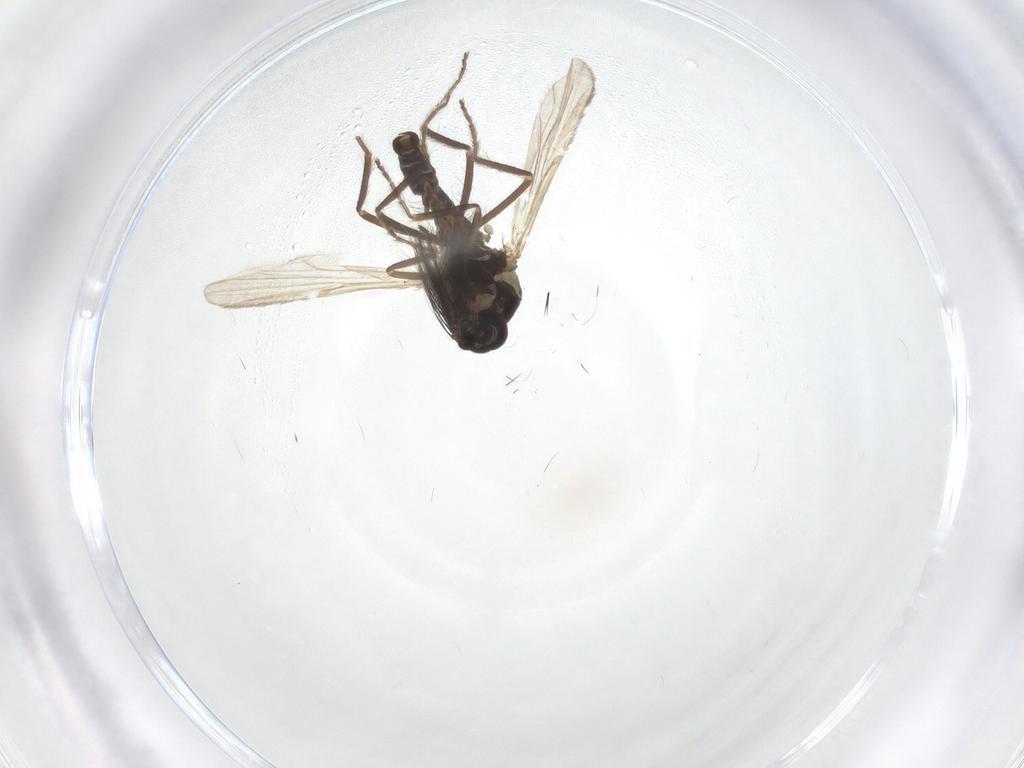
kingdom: Animalia
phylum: Arthropoda
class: Insecta
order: Diptera
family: Ceratopogonidae
